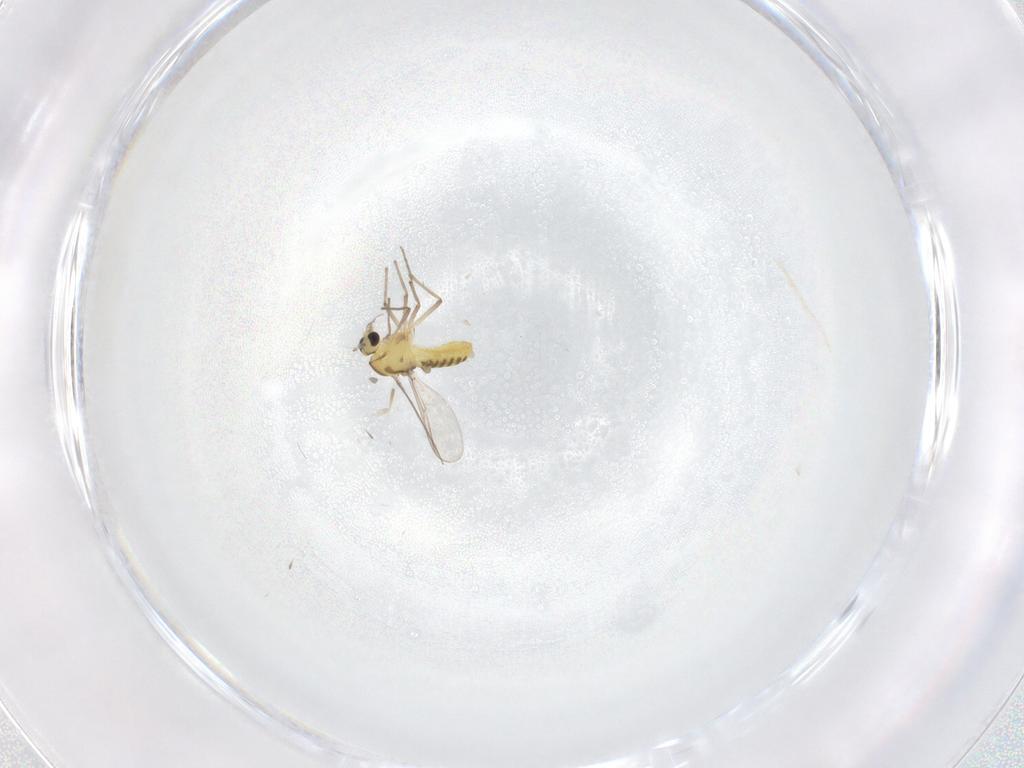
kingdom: Animalia
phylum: Arthropoda
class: Insecta
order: Diptera
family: Chironomidae
